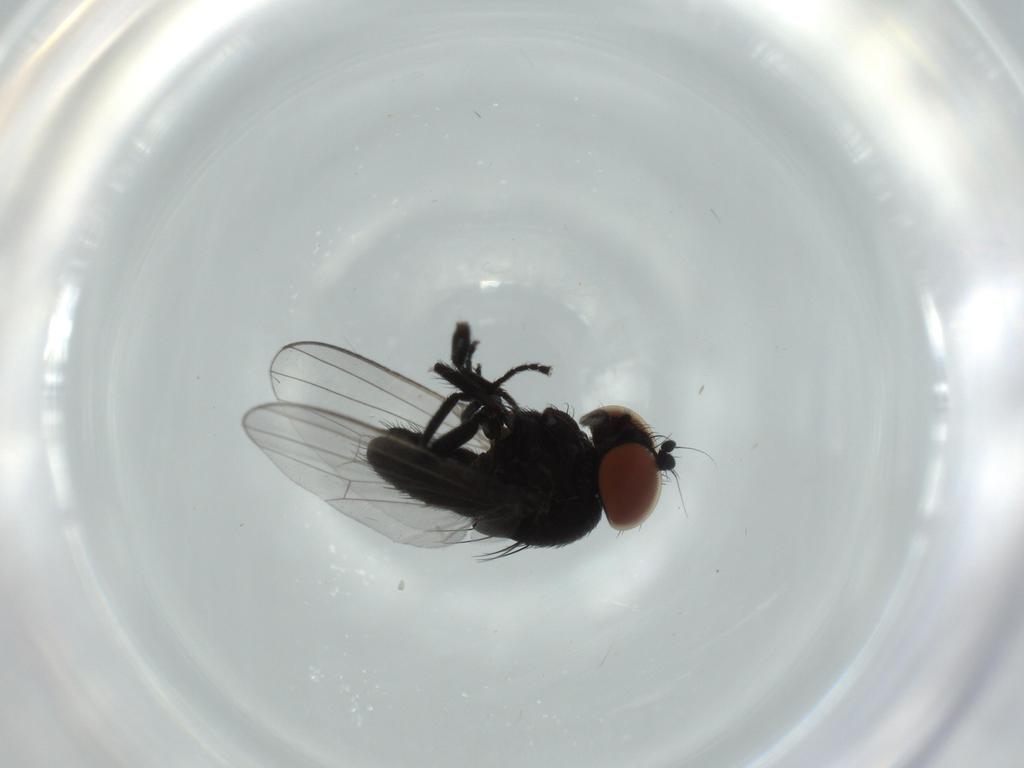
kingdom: Animalia
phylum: Arthropoda
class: Insecta
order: Diptera
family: Milichiidae
